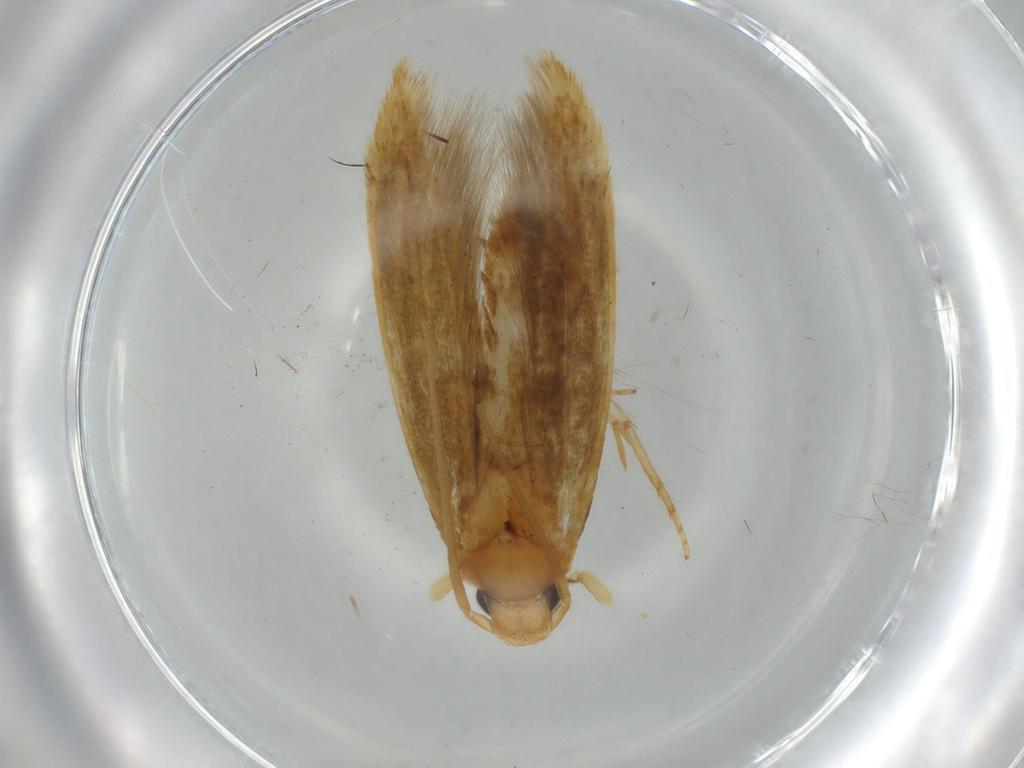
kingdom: Animalia
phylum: Arthropoda
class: Insecta
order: Lepidoptera
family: Tineidae
